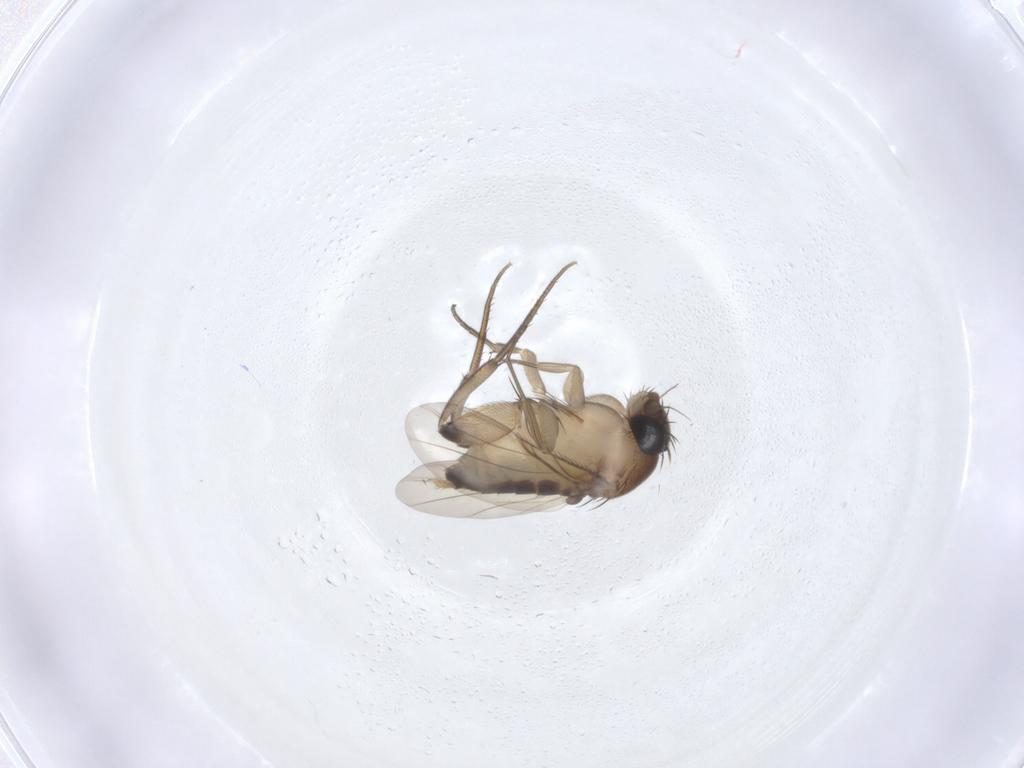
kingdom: Animalia
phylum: Arthropoda
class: Insecta
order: Diptera
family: Phoridae
